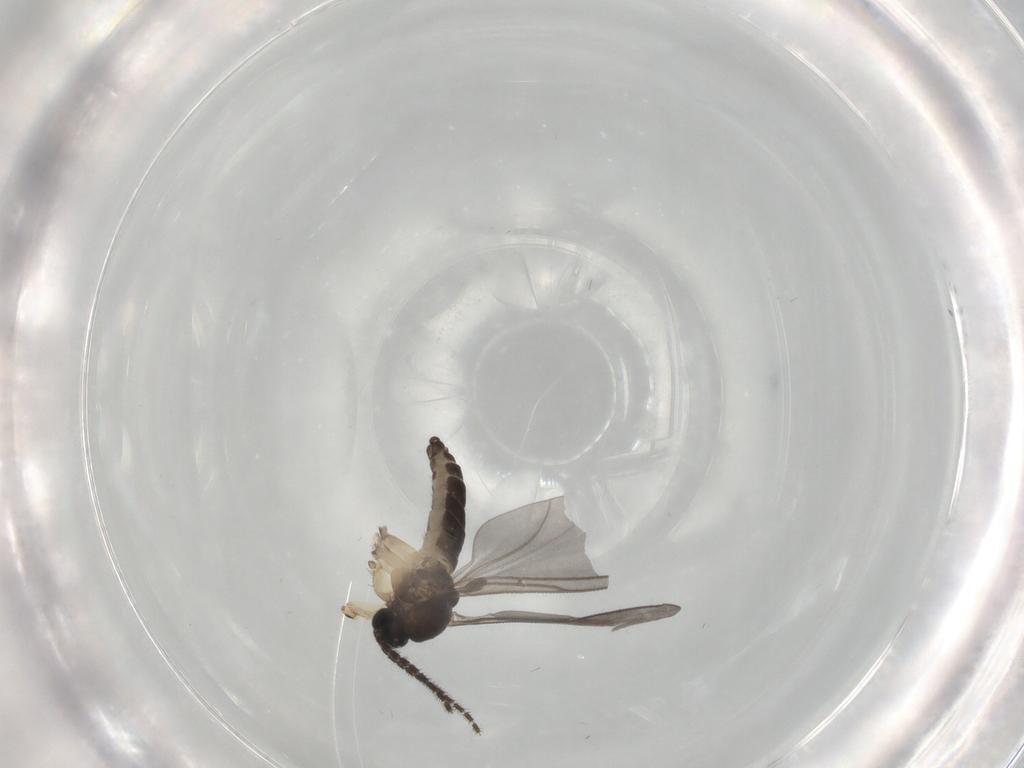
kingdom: Animalia
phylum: Arthropoda
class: Insecta
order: Diptera
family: Sciaridae
